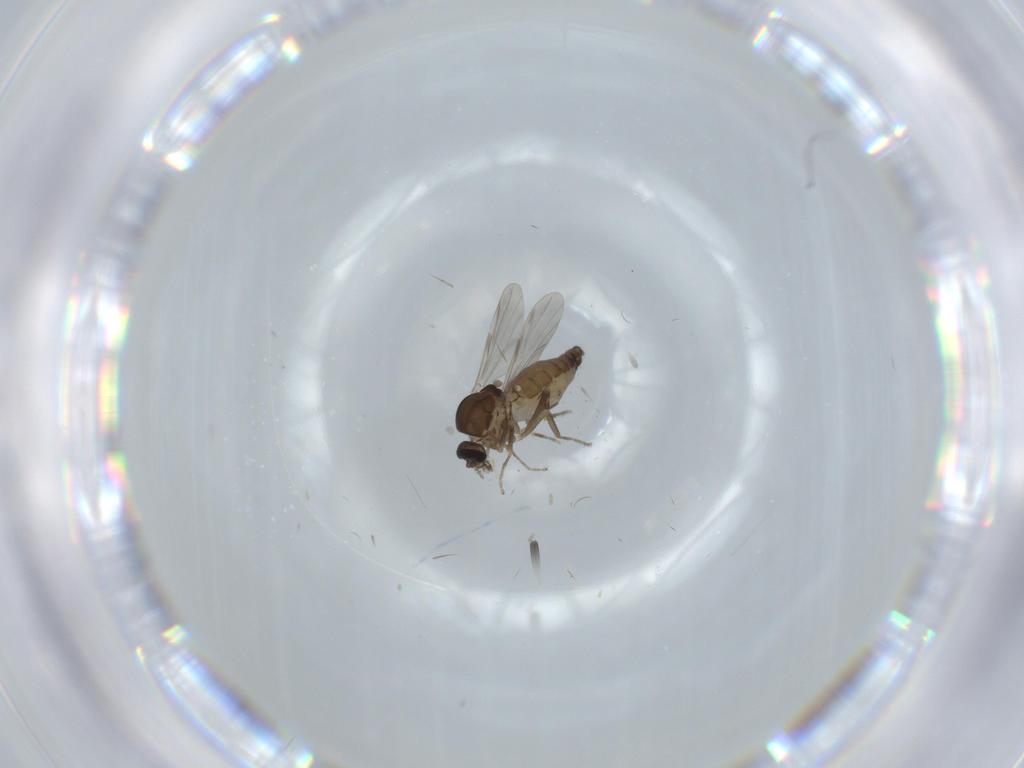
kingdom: Animalia
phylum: Arthropoda
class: Insecta
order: Diptera
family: Ceratopogonidae
